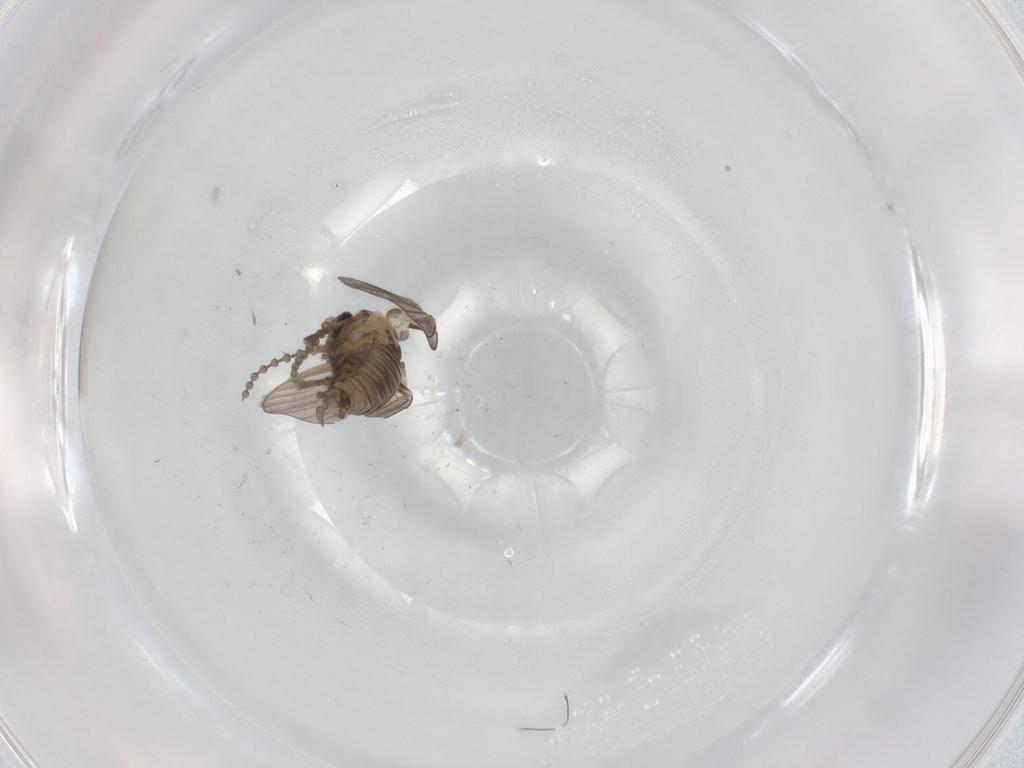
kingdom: Animalia
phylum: Arthropoda
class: Insecta
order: Diptera
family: Psychodidae
